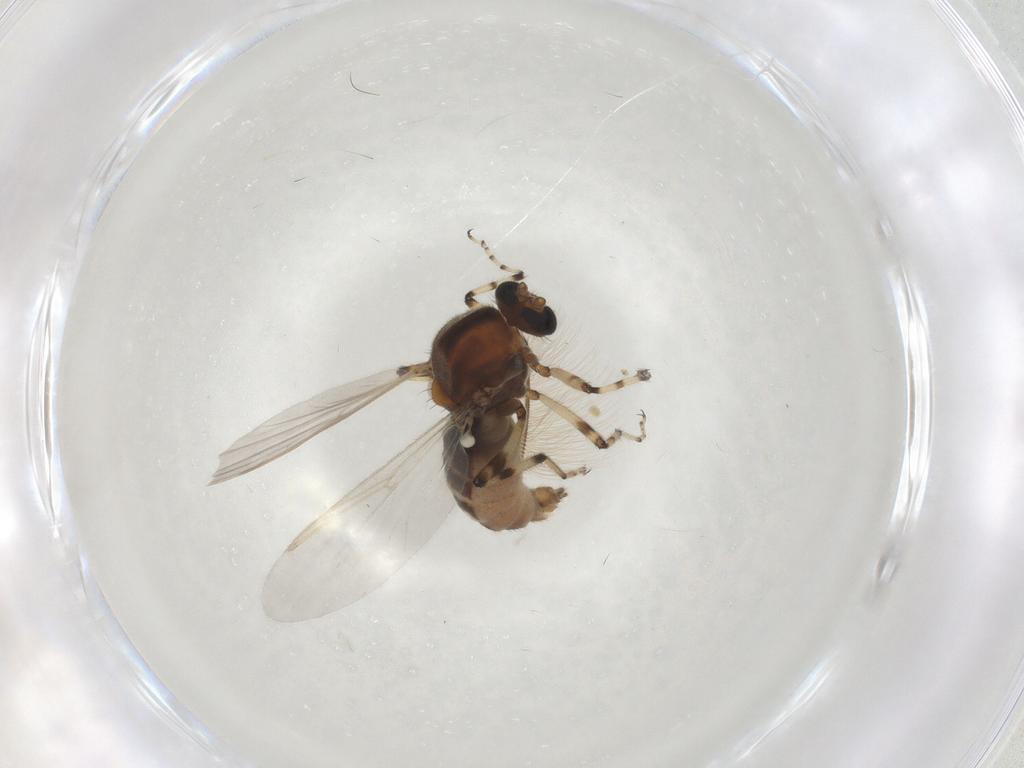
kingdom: Animalia
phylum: Arthropoda
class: Insecta
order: Diptera
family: Ceratopogonidae
